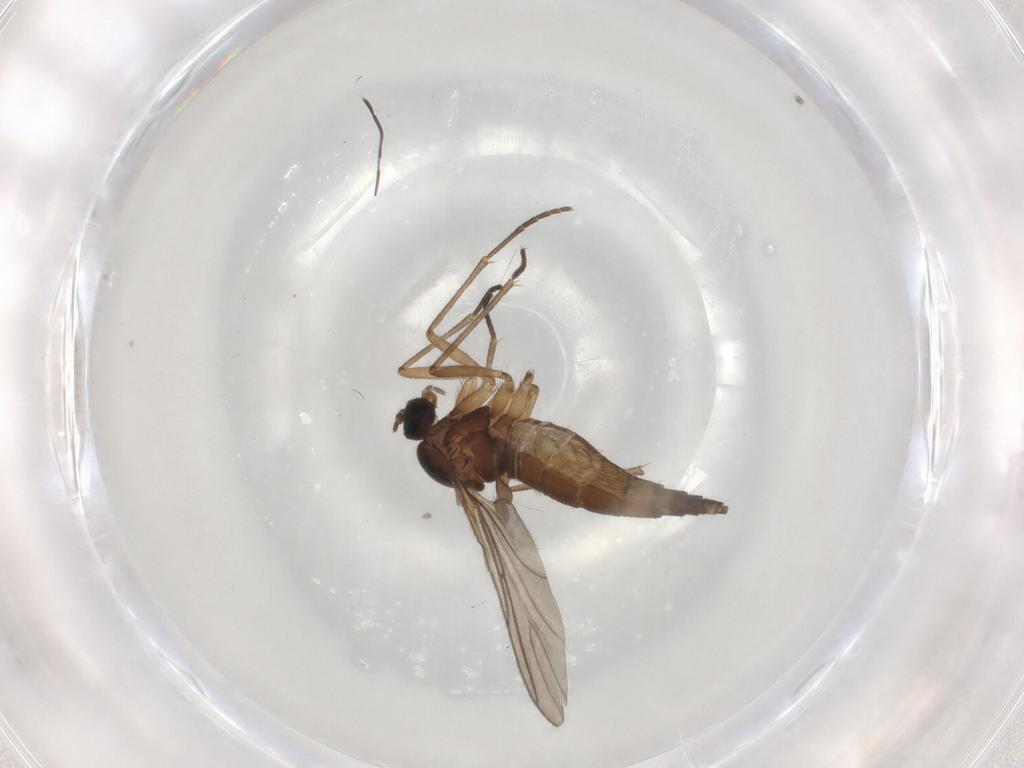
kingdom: Animalia
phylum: Arthropoda
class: Insecta
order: Diptera
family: Sciaridae
